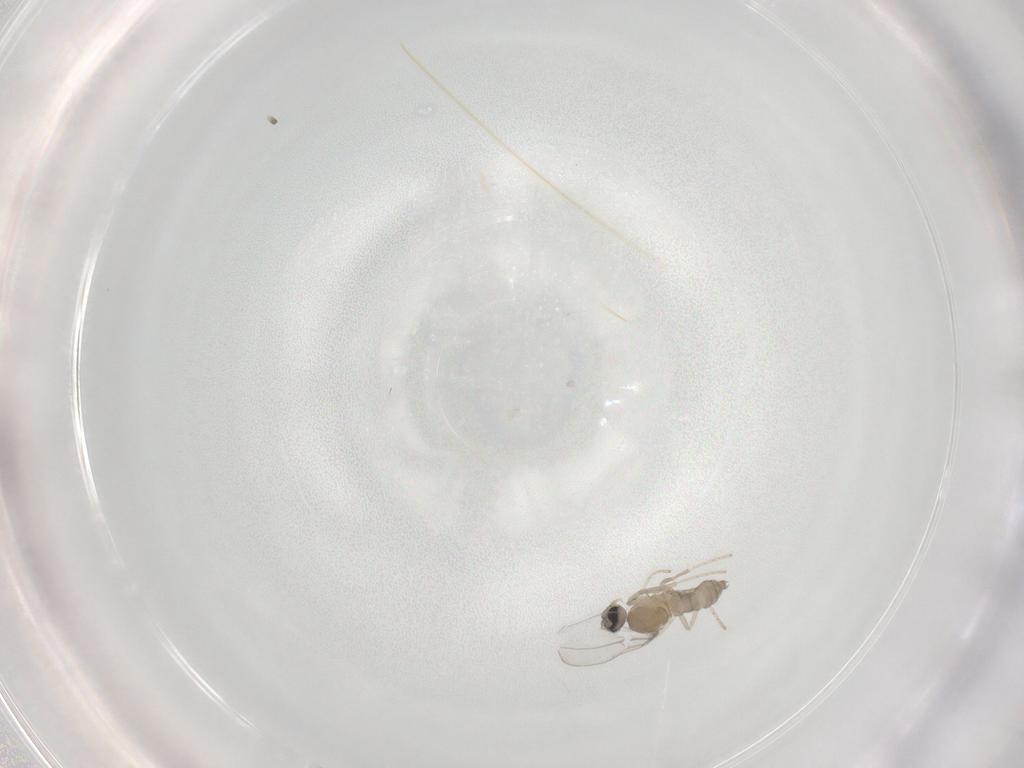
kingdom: Animalia
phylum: Arthropoda
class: Insecta
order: Diptera
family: Cecidomyiidae
